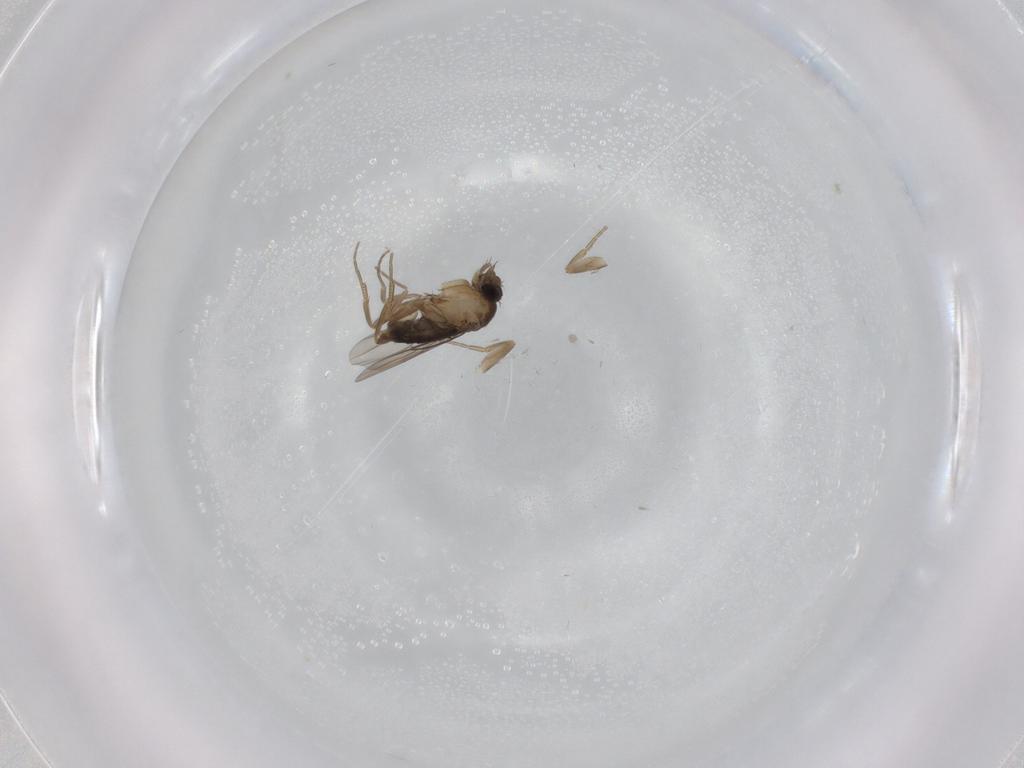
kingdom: Animalia
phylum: Arthropoda
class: Insecta
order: Diptera
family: Phoridae
